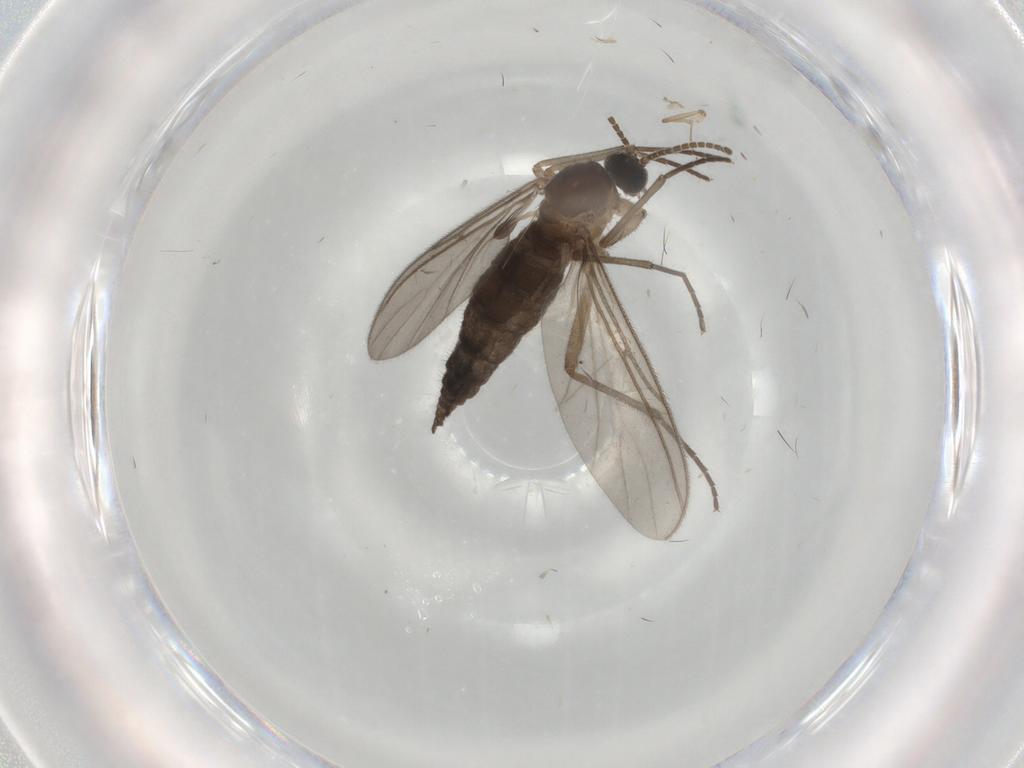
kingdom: Animalia
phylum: Arthropoda
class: Insecta
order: Diptera
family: Sciaridae
